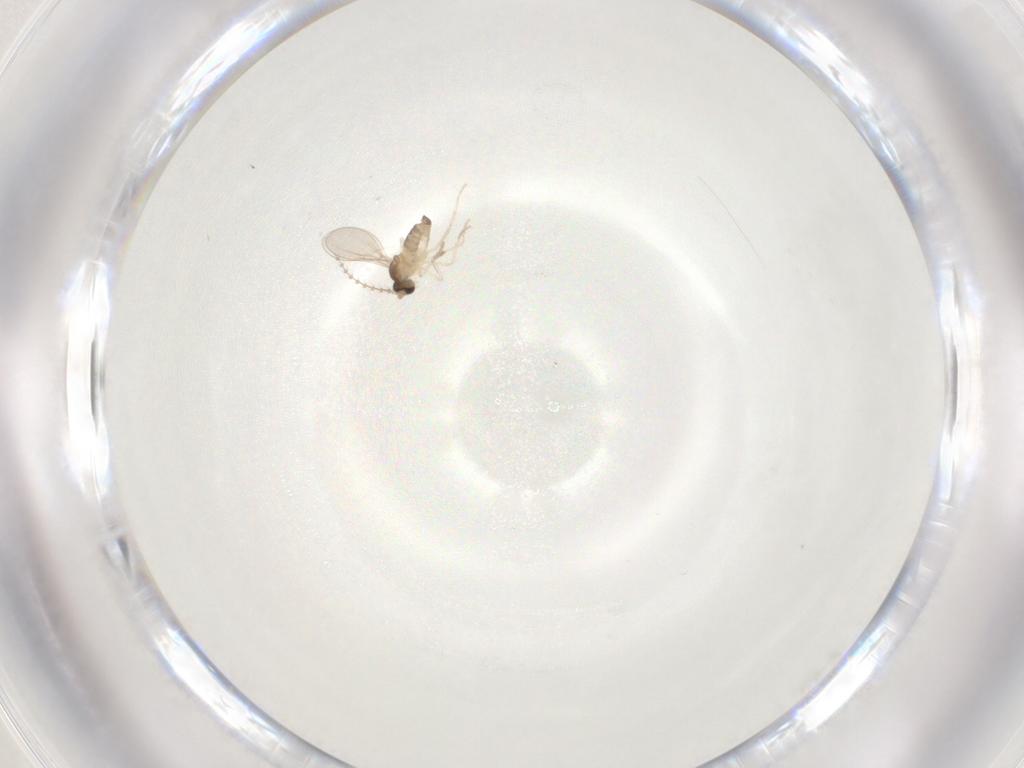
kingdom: Animalia
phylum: Arthropoda
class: Insecta
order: Diptera
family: Cecidomyiidae
